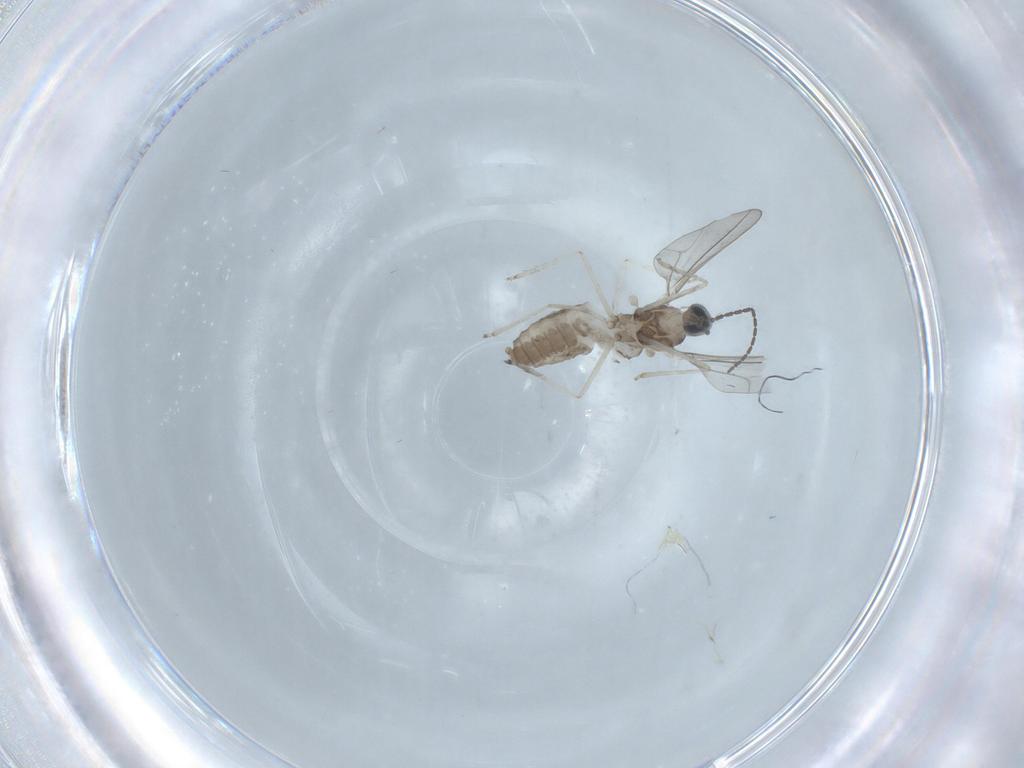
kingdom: Animalia
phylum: Arthropoda
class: Insecta
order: Diptera
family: Cecidomyiidae
